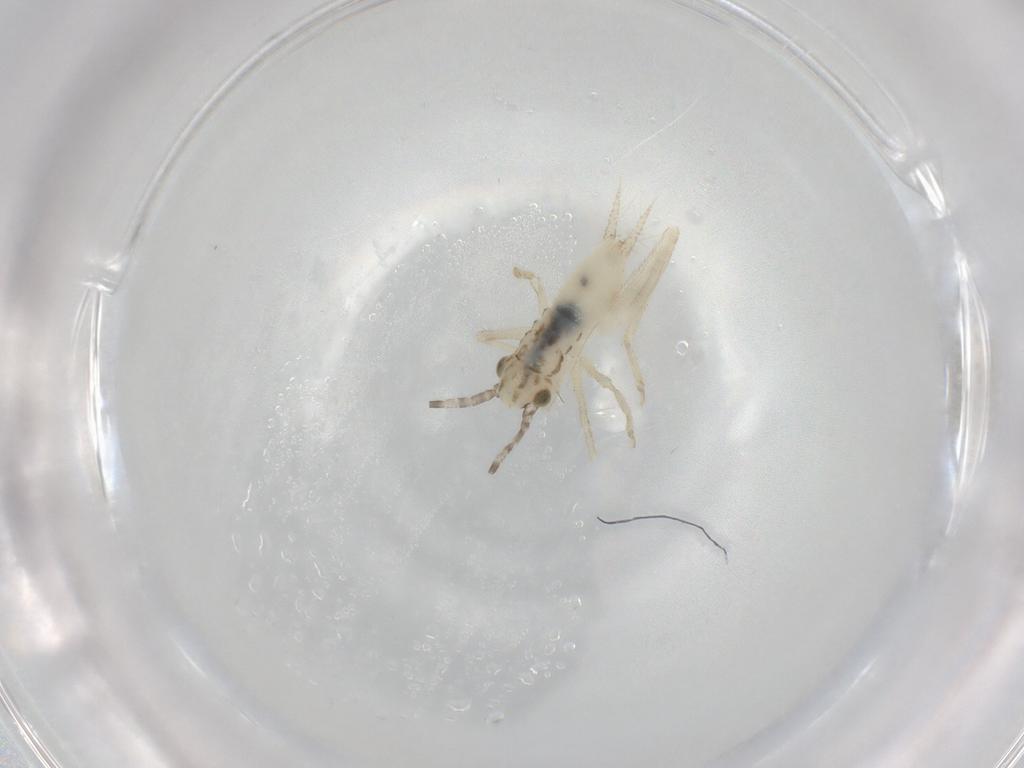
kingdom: Animalia
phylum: Arthropoda
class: Insecta
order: Orthoptera
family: Trigonidiidae
